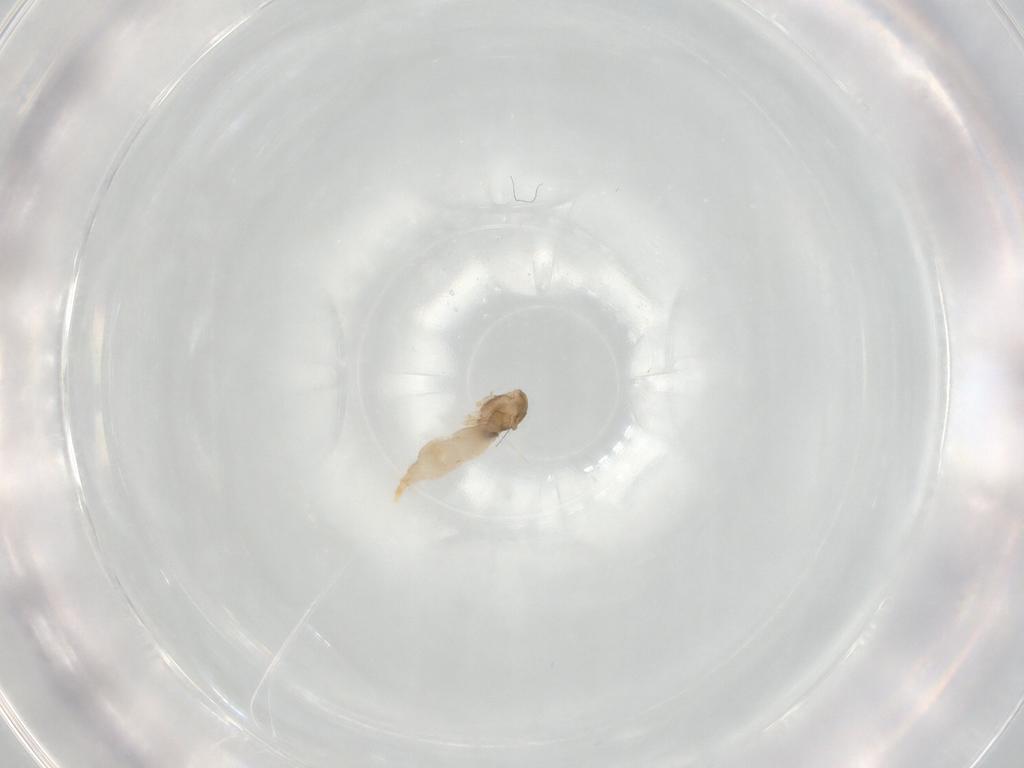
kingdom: Animalia
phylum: Arthropoda
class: Insecta
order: Diptera
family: Cecidomyiidae
